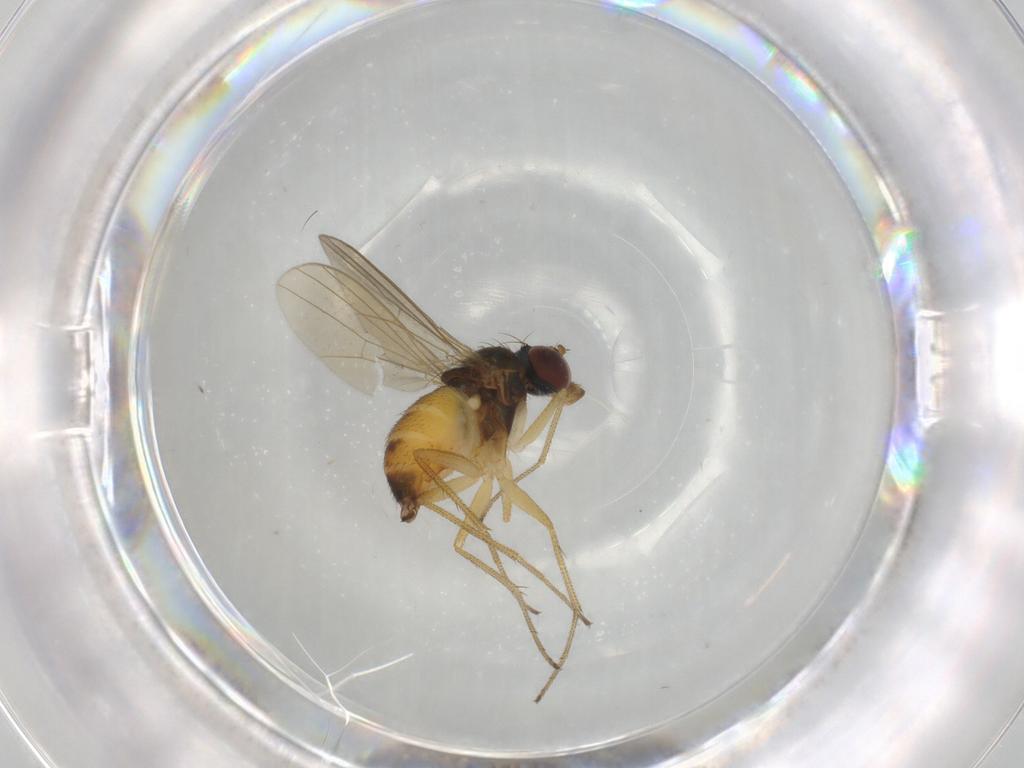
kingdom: Animalia
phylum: Arthropoda
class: Insecta
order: Diptera
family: Dolichopodidae
